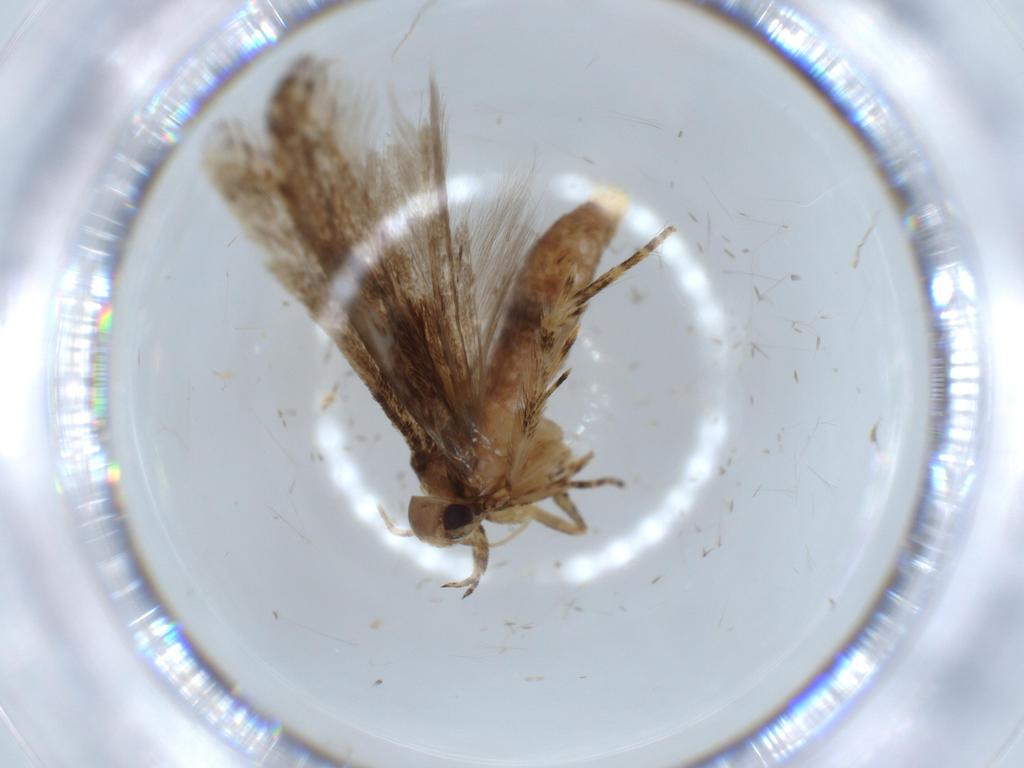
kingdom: Animalia
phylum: Arthropoda
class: Insecta
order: Lepidoptera
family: Gelechiidae
